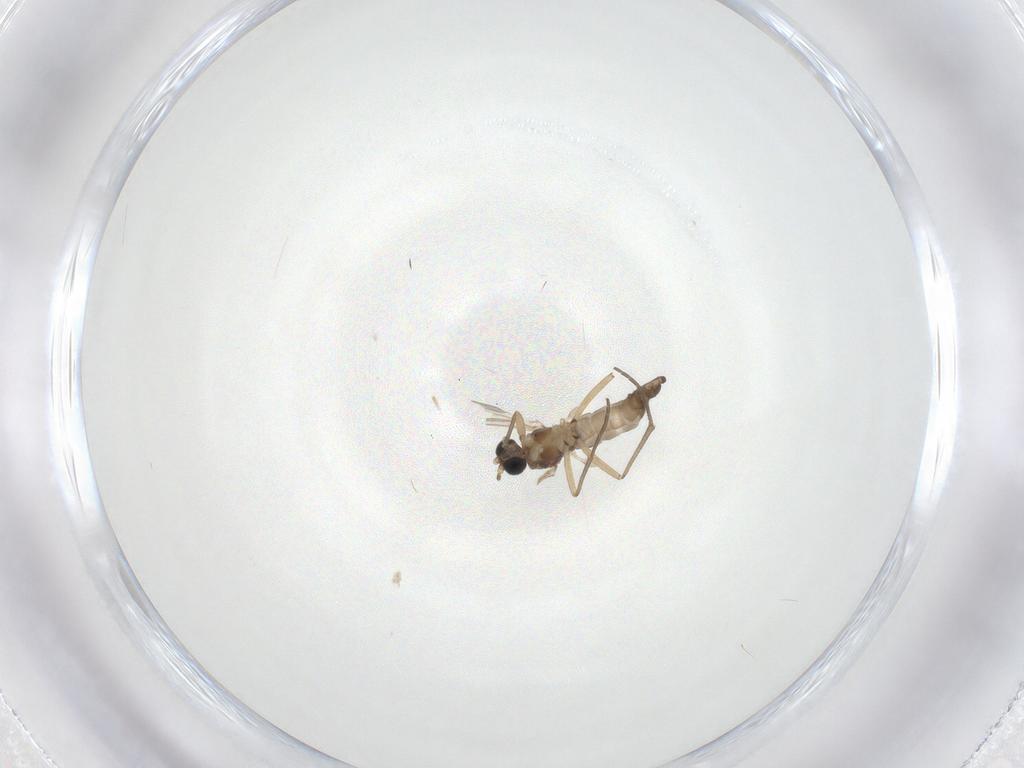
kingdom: Animalia
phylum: Arthropoda
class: Insecta
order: Diptera
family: Sciaridae
